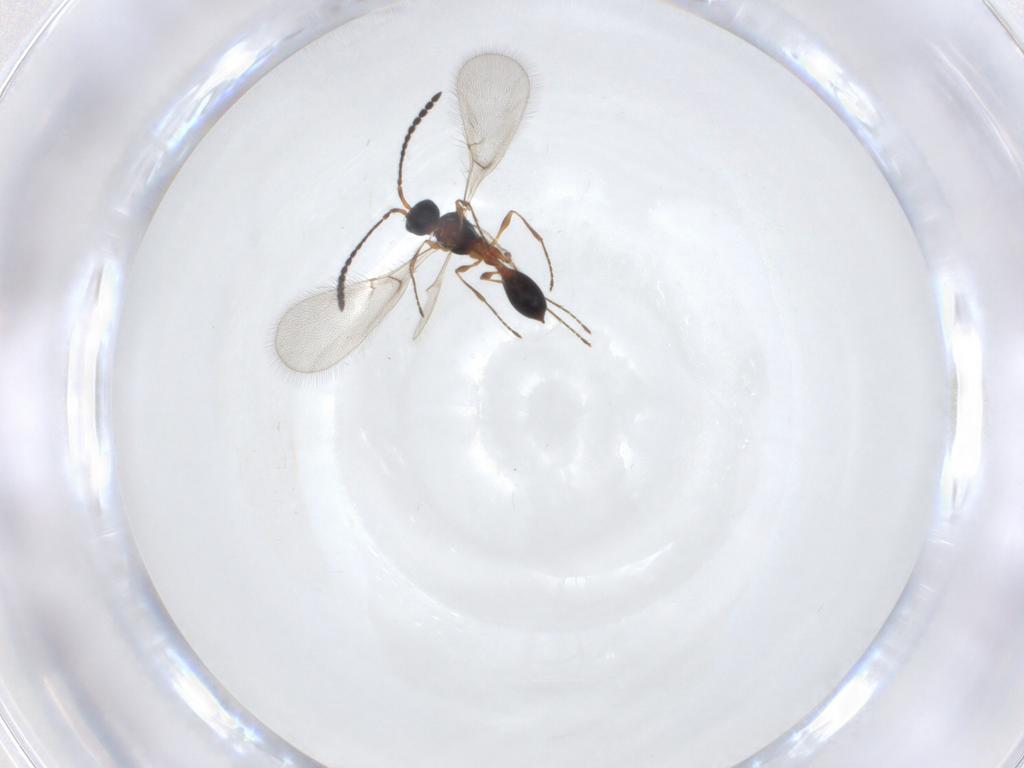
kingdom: Animalia
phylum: Arthropoda
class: Insecta
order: Hymenoptera
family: Diapriidae
